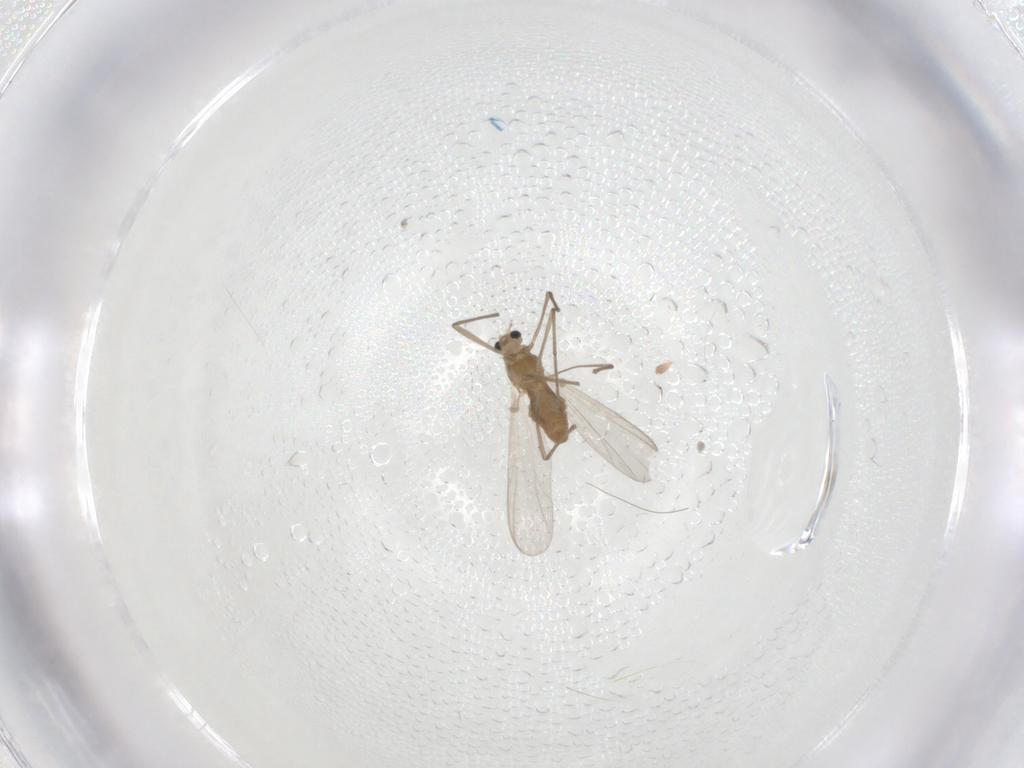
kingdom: Animalia
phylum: Arthropoda
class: Insecta
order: Diptera
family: Chironomidae
